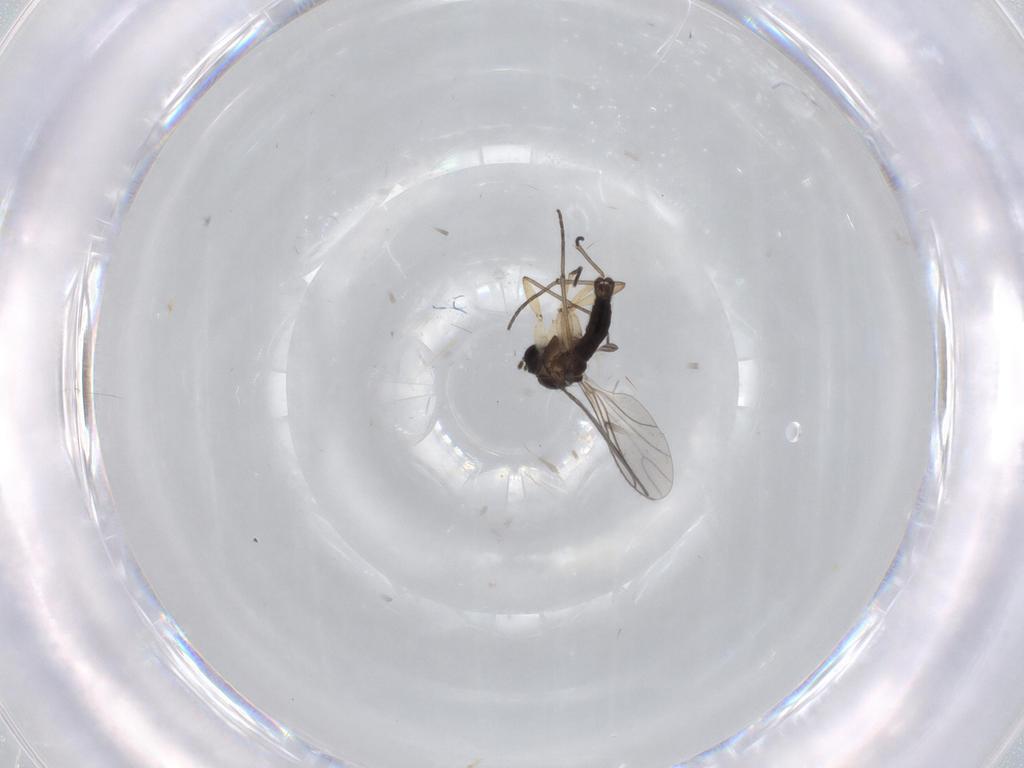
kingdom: Animalia
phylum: Arthropoda
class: Insecta
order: Diptera
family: Sciaridae
